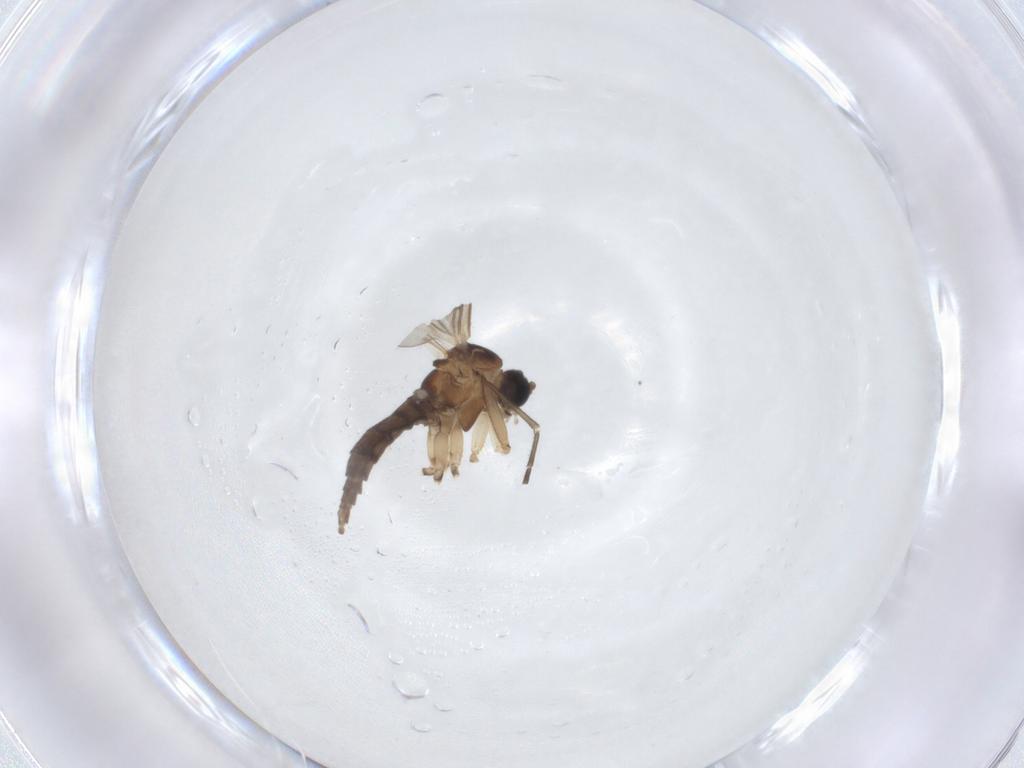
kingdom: Animalia
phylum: Arthropoda
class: Insecta
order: Diptera
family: Sciaridae
